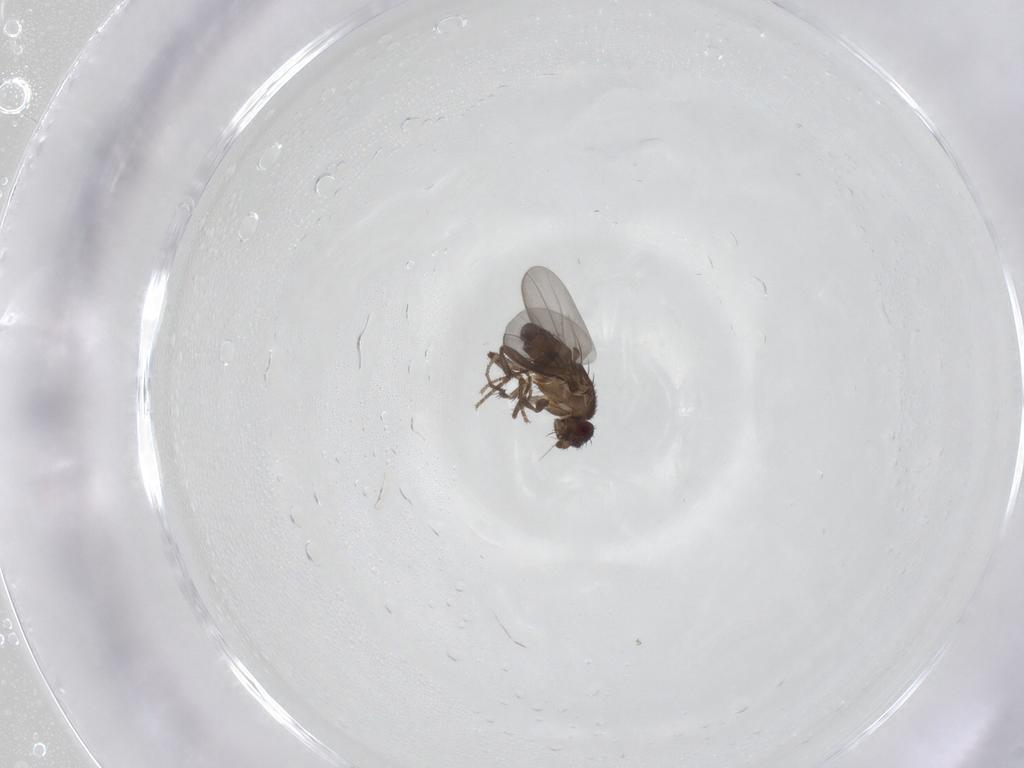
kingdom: Animalia
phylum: Arthropoda
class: Insecta
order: Diptera
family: Phoridae
